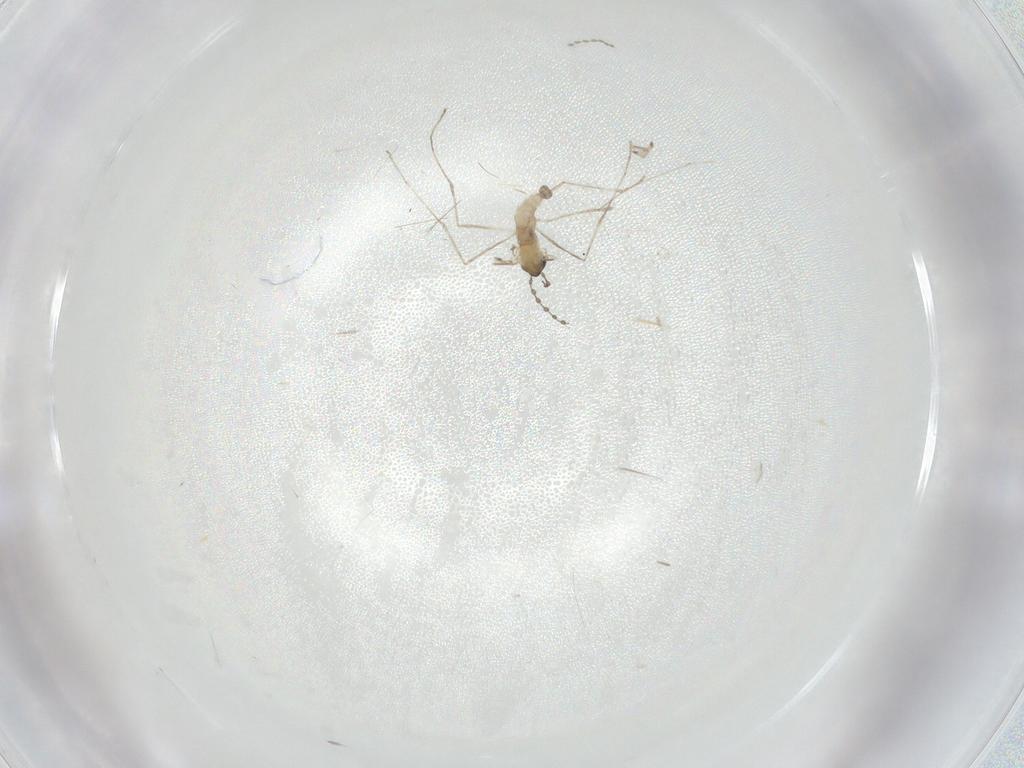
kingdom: Animalia
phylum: Arthropoda
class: Insecta
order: Diptera
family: Cecidomyiidae
